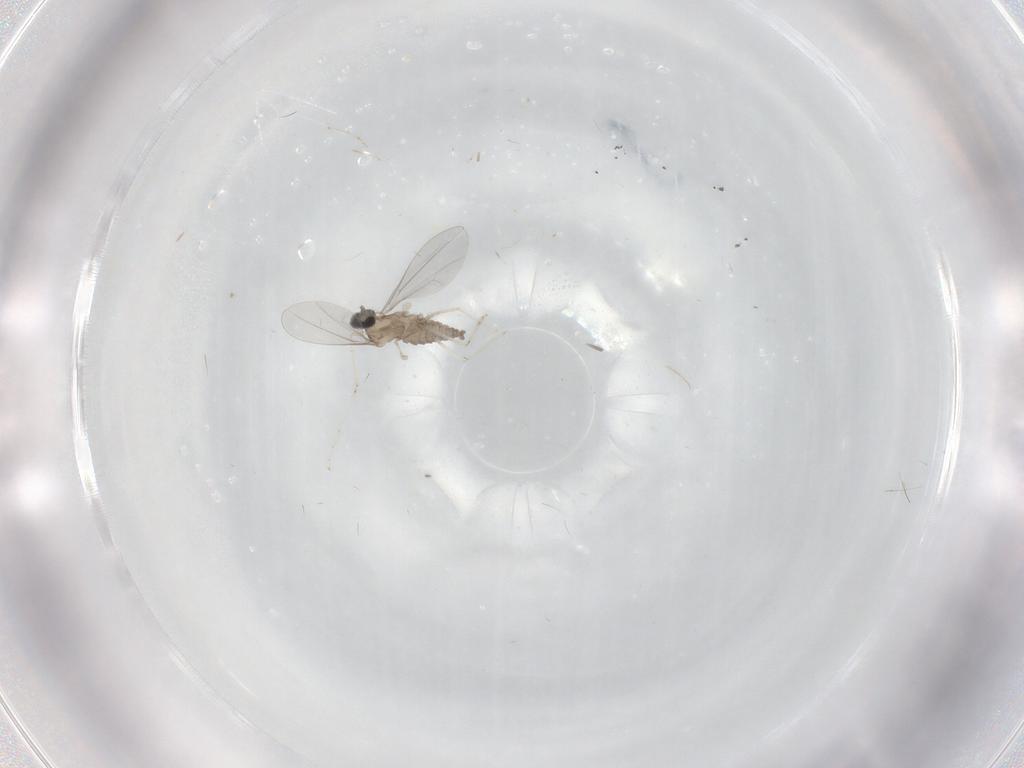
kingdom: Animalia
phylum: Arthropoda
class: Insecta
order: Diptera
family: Cecidomyiidae
